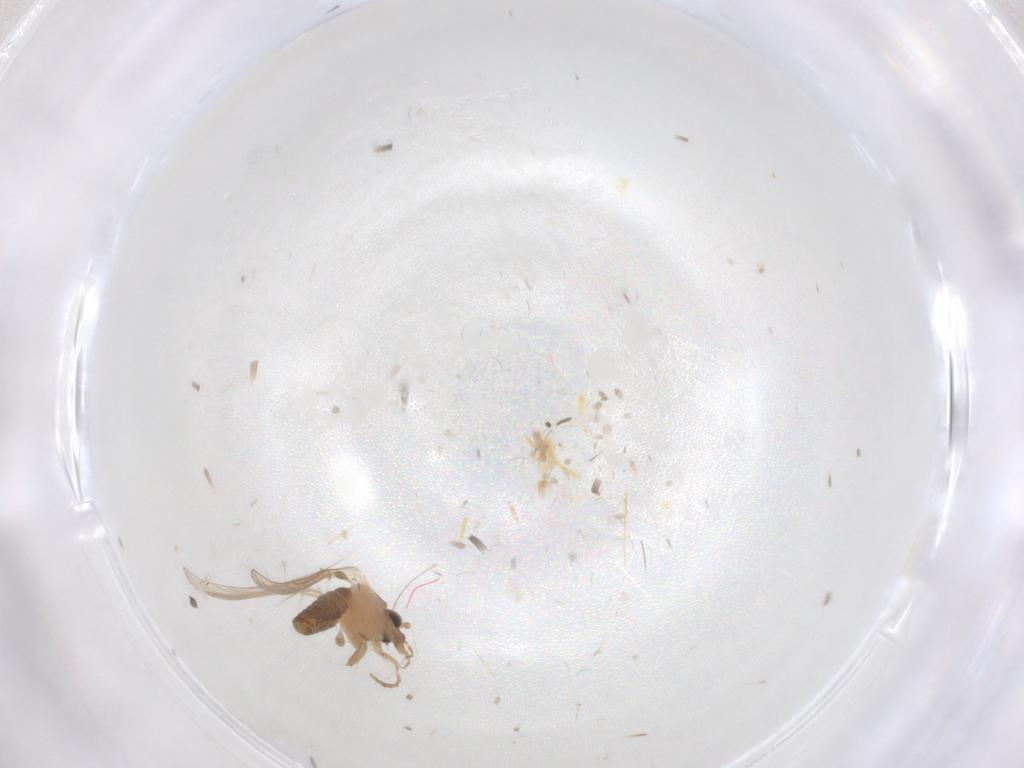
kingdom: Animalia
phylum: Arthropoda
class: Insecta
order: Diptera
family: Psychodidae
